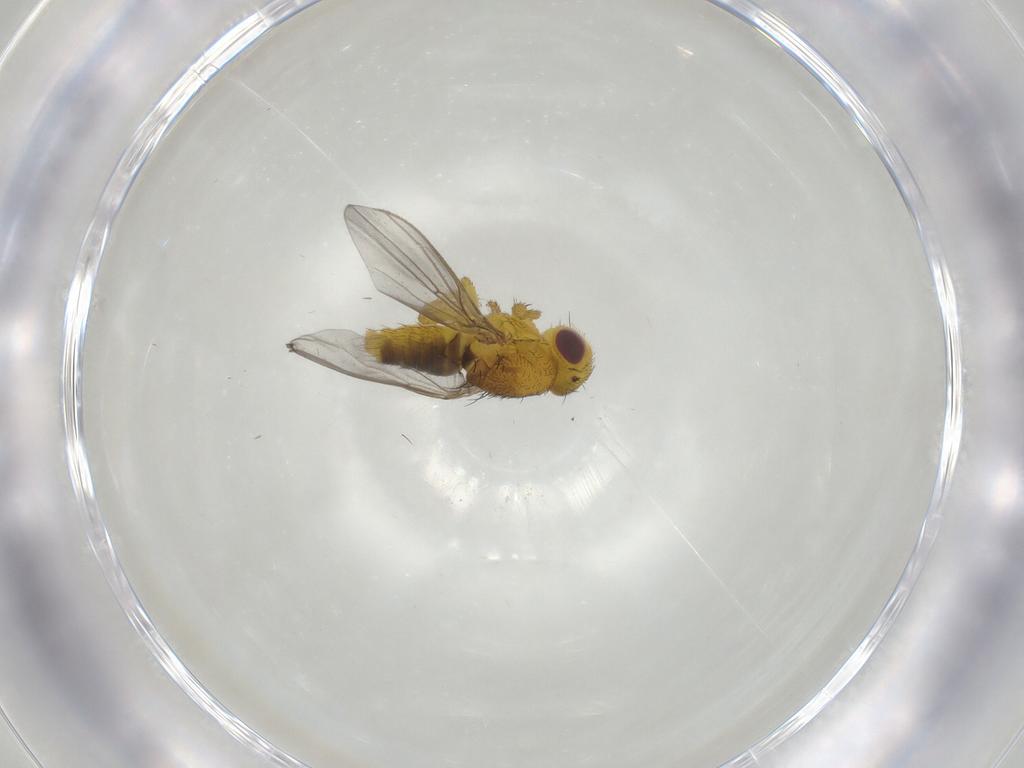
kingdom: Animalia
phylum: Arthropoda
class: Insecta
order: Diptera
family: Fergusoninidae
